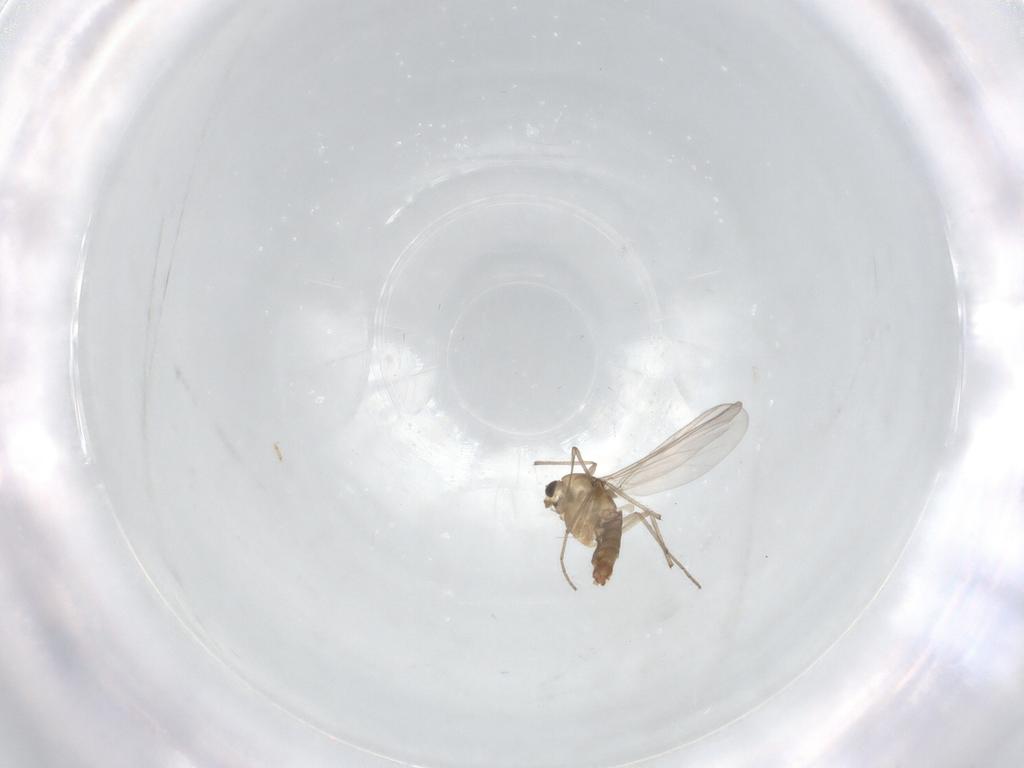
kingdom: Animalia
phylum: Arthropoda
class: Insecta
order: Diptera
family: Chironomidae
